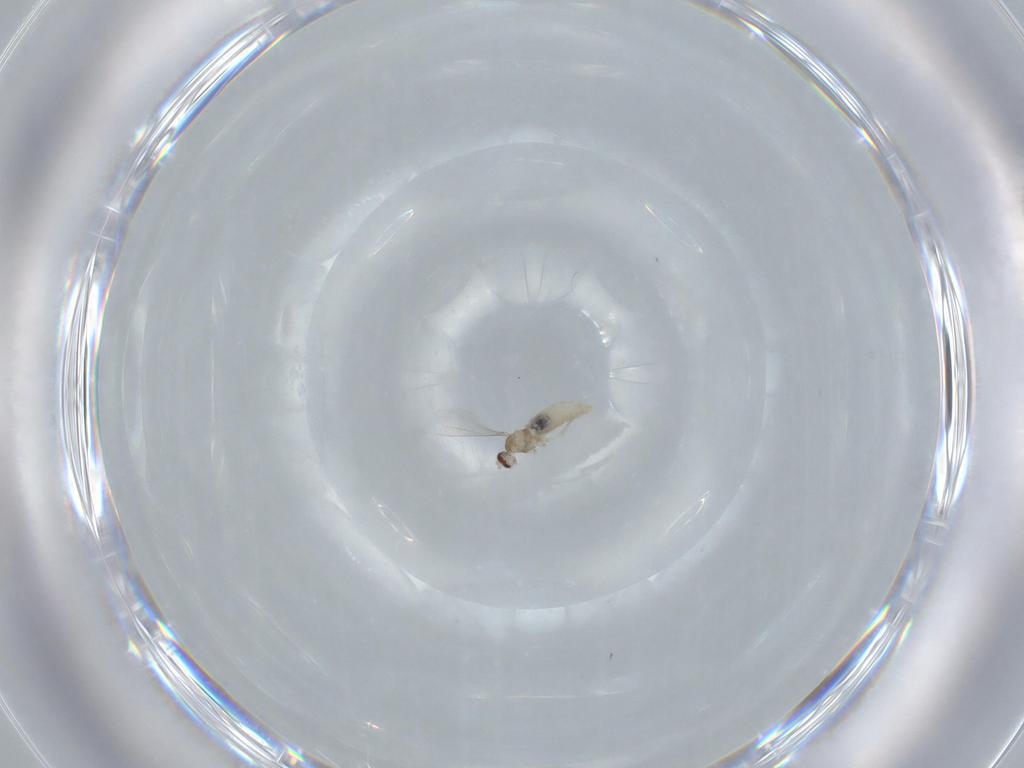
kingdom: Animalia
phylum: Arthropoda
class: Insecta
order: Diptera
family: Cecidomyiidae
